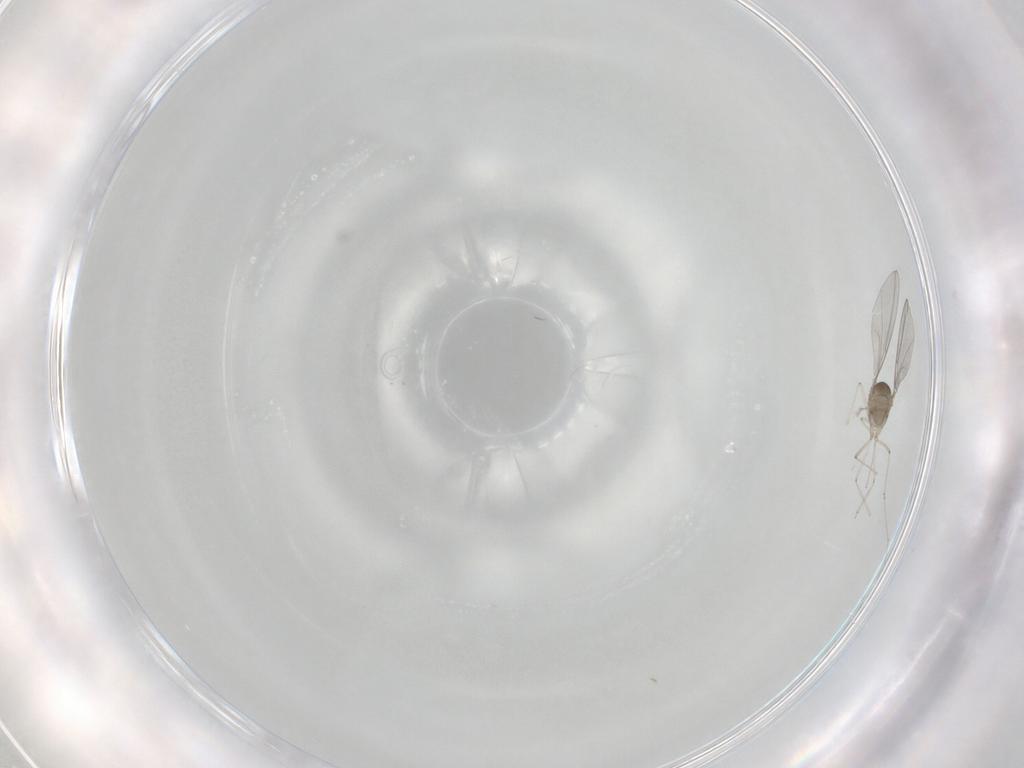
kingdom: Animalia
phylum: Arthropoda
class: Insecta
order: Diptera
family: Cecidomyiidae
